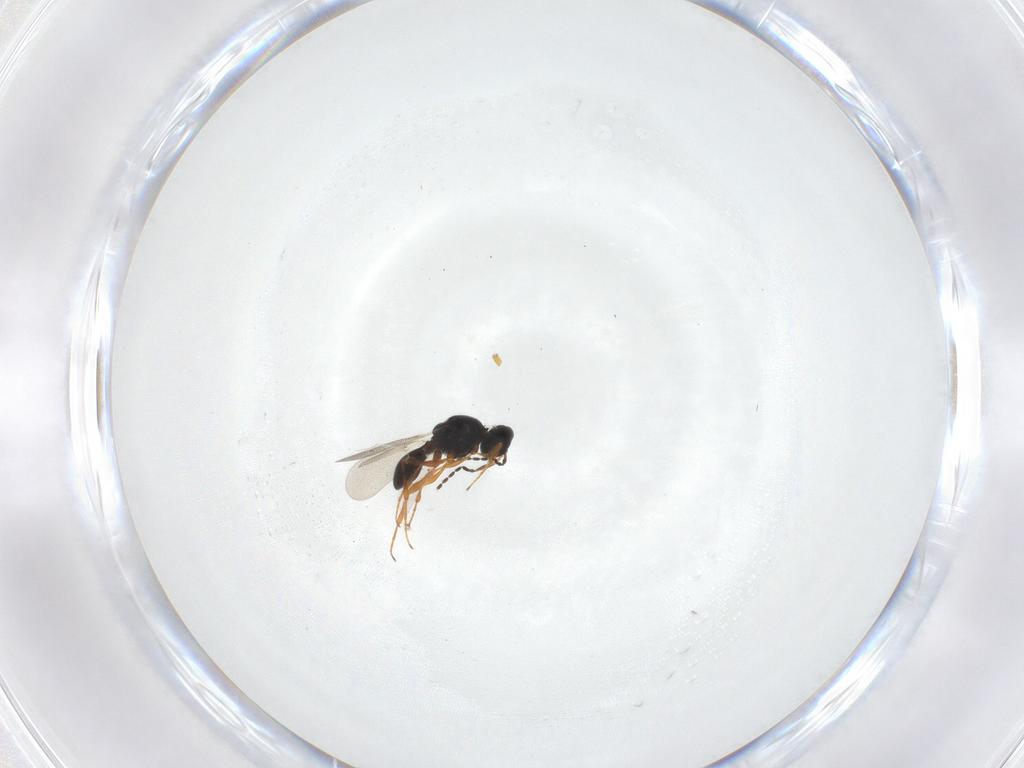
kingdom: Animalia
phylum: Arthropoda
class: Insecta
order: Hymenoptera
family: Platygastridae
